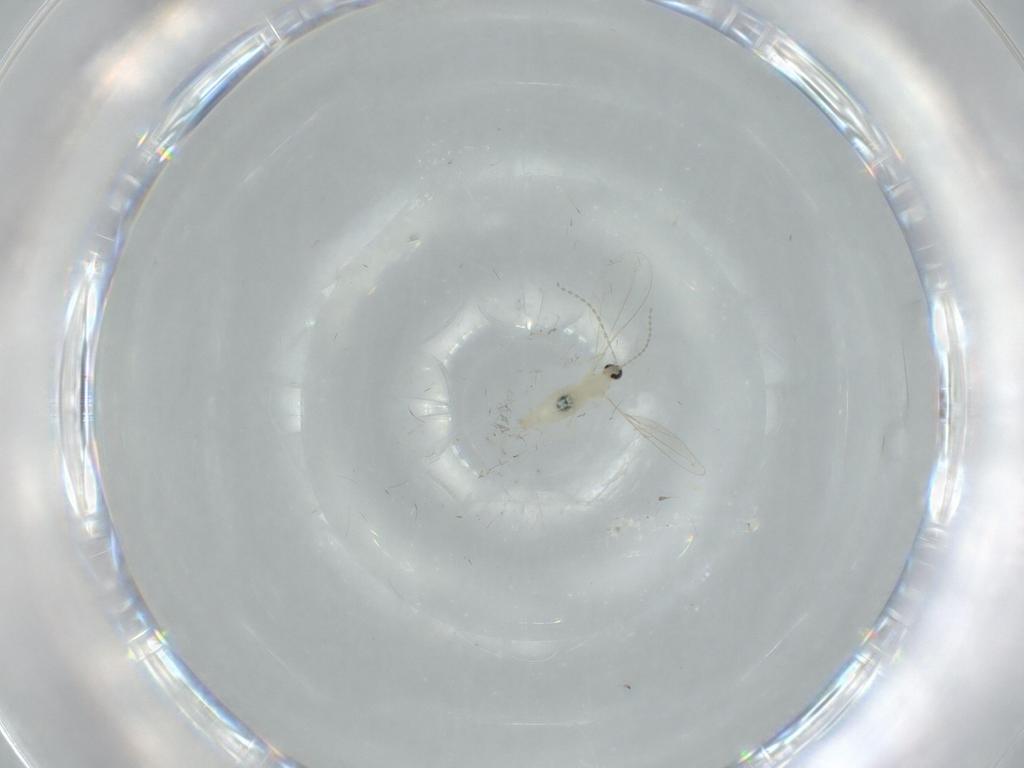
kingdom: Animalia
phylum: Arthropoda
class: Insecta
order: Diptera
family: Cecidomyiidae
